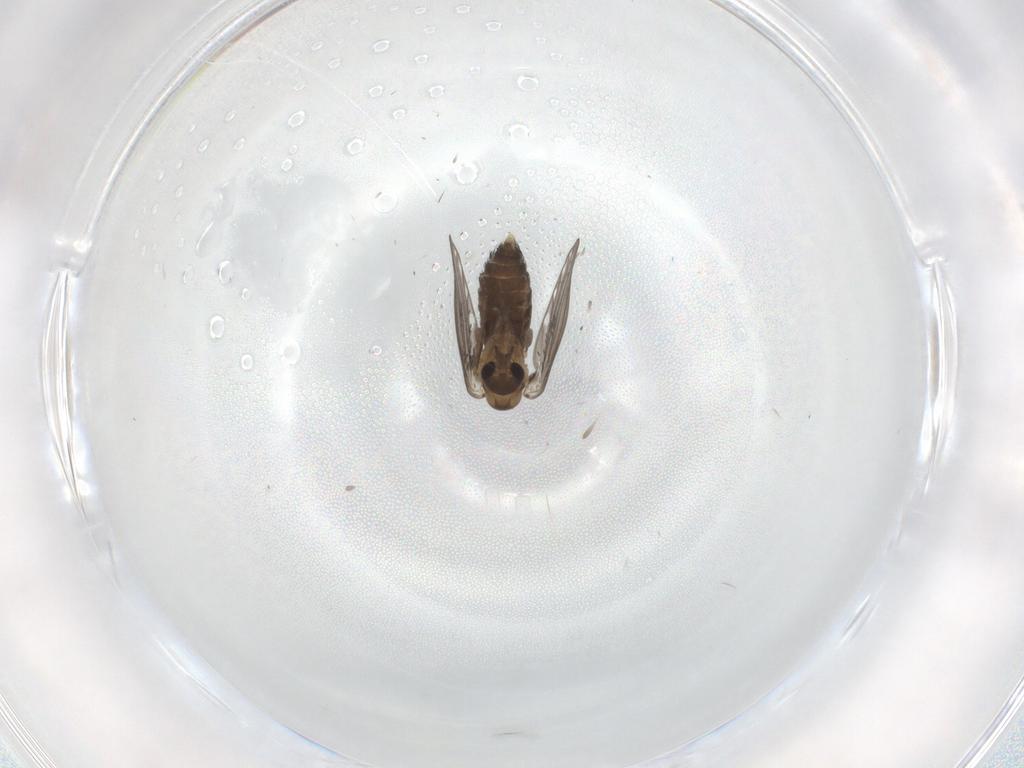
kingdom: Animalia
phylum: Arthropoda
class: Insecta
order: Diptera
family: Psychodidae
